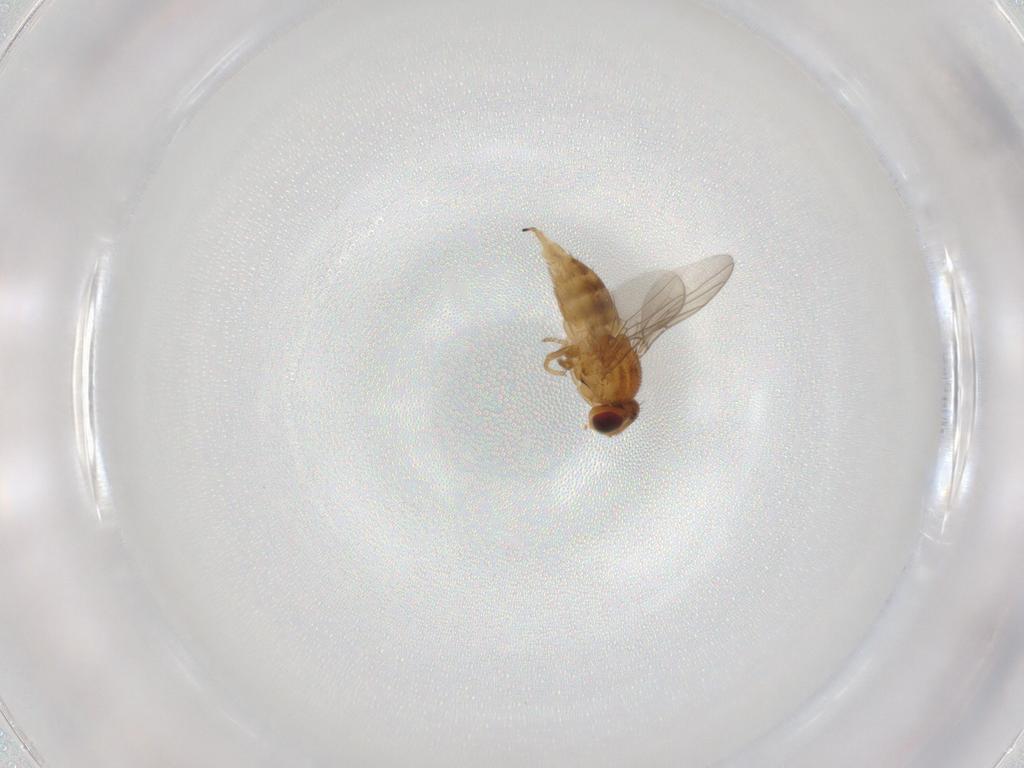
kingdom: Animalia
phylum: Arthropoda
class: Insecta
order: Diptera
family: Chloropidae
